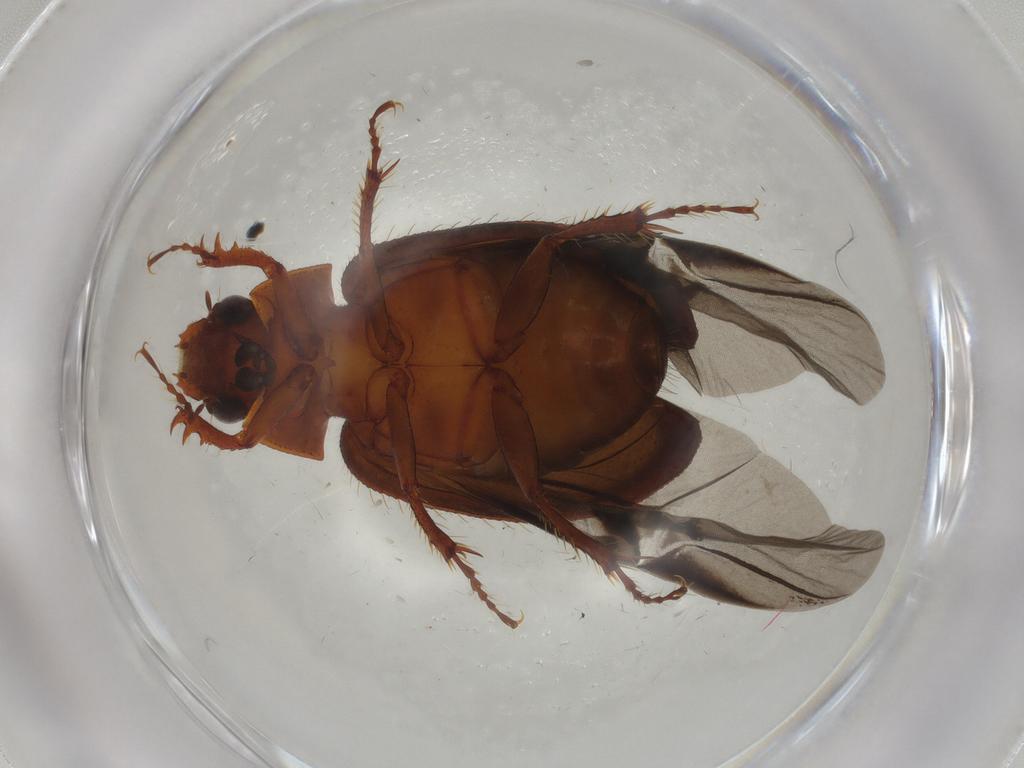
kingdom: Animalia
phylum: Arthropoda
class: Insecta
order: Coleoptera
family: Hybosoridae
